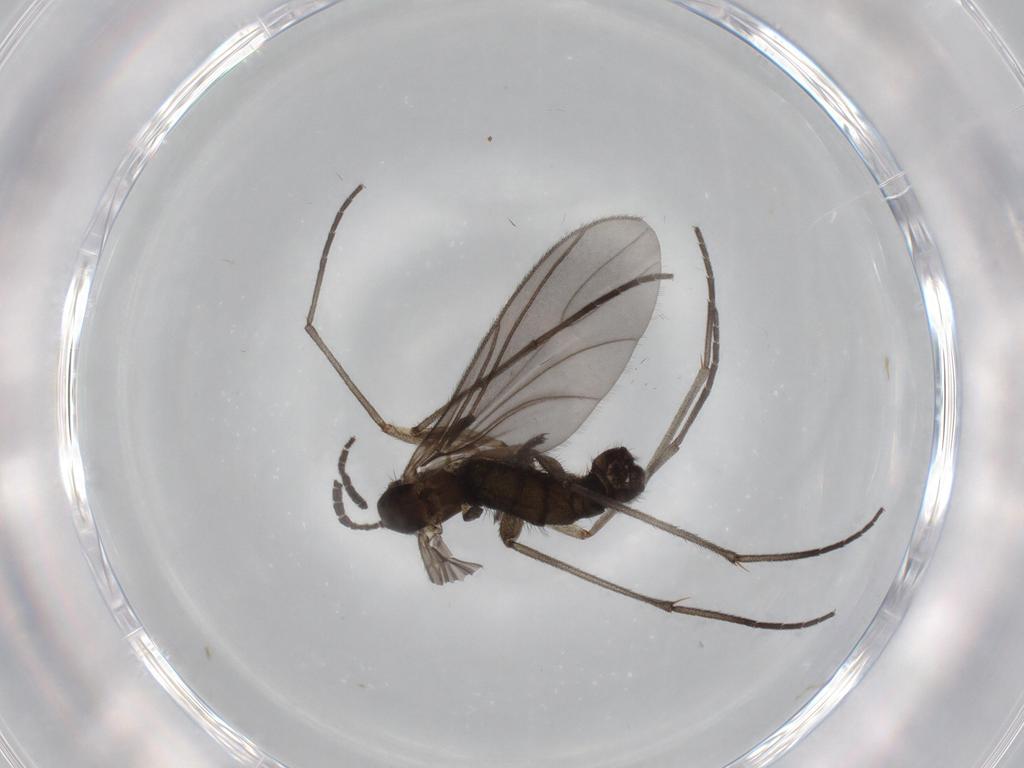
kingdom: Animalia
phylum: Arthropoda
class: Insecta
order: Diptera
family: Sciaridae
